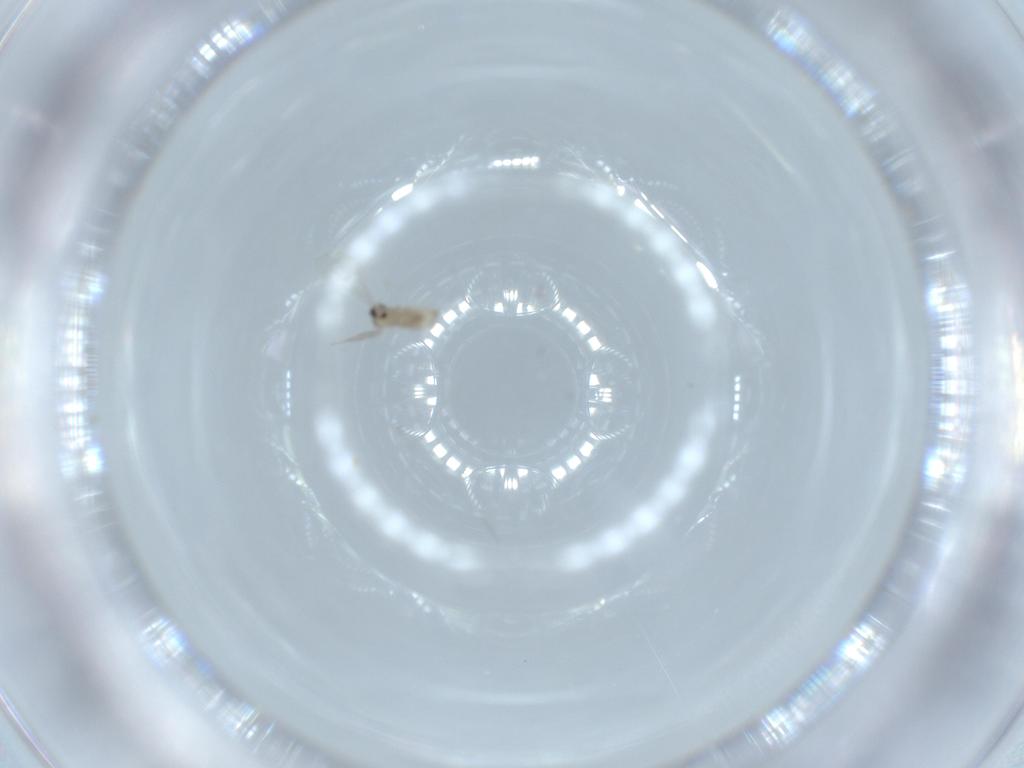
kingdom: Animalia
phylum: Arthropoda
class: Insecta
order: Diptera
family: Cecidomyiidae
